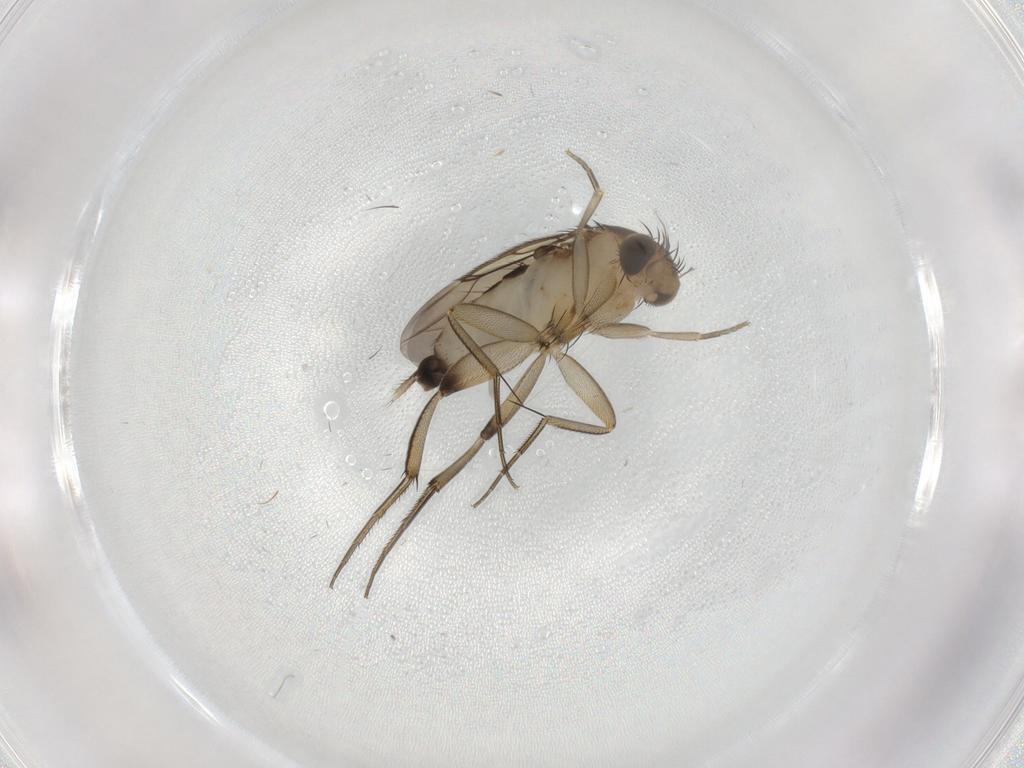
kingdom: Animalia
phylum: Arthropoda
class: Insecta
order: Diptera
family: Phoridae
